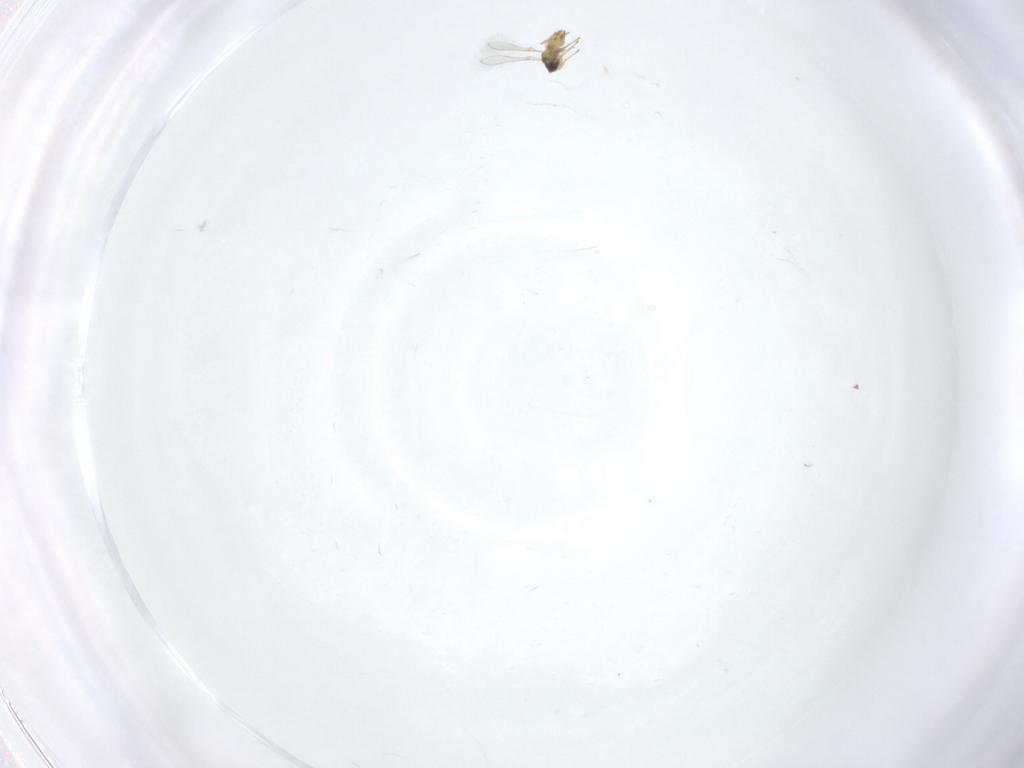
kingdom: Animalia
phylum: Arthropoda
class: Insecta
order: Hymenoptera
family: Mymaridae
